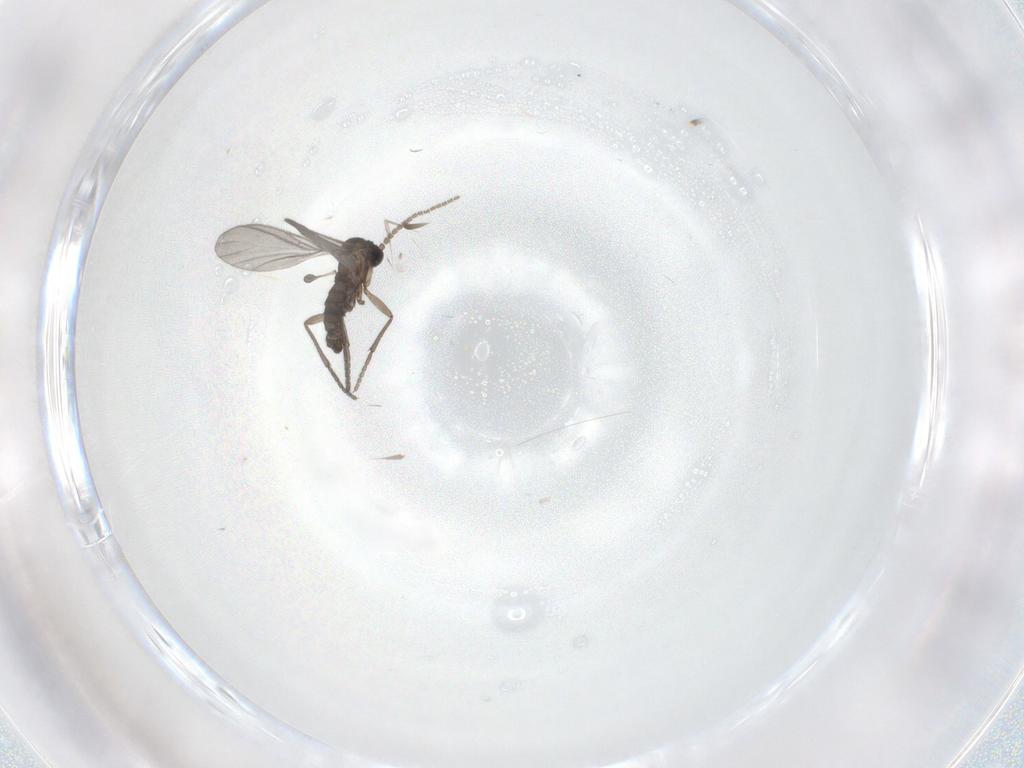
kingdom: Animalia
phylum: Arthropoda
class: Insecta
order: Diptera
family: Sciaridae
